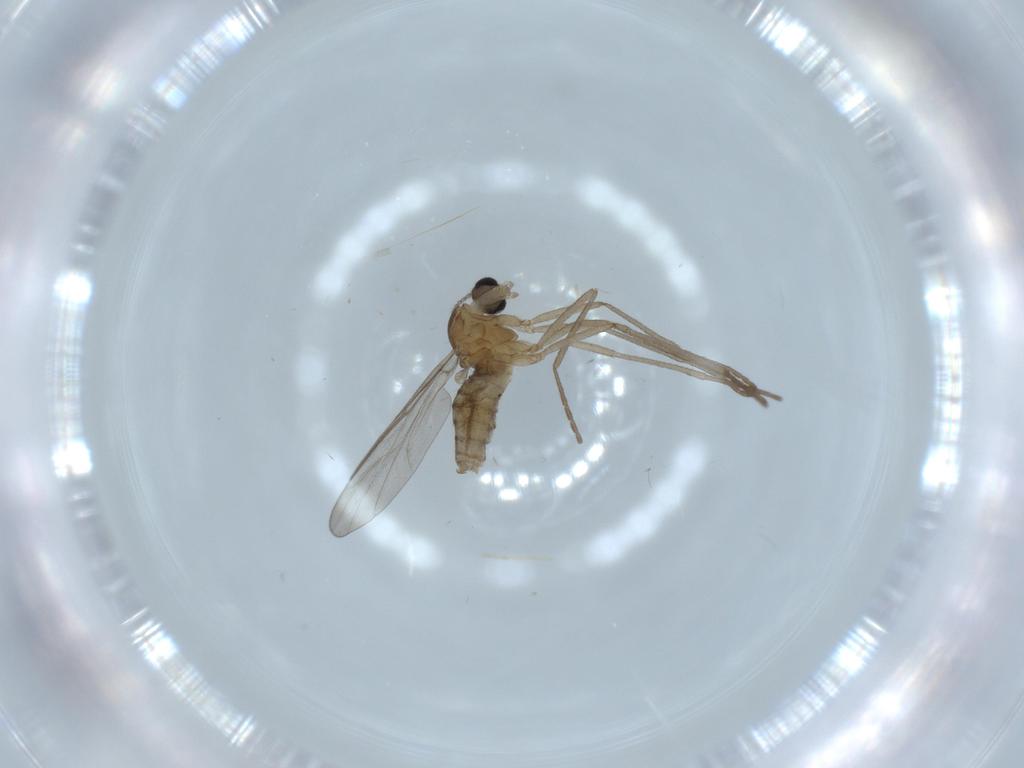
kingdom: Animalia
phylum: Arthropoda
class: Insecta
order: Diptera
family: Cecidomyiidae
